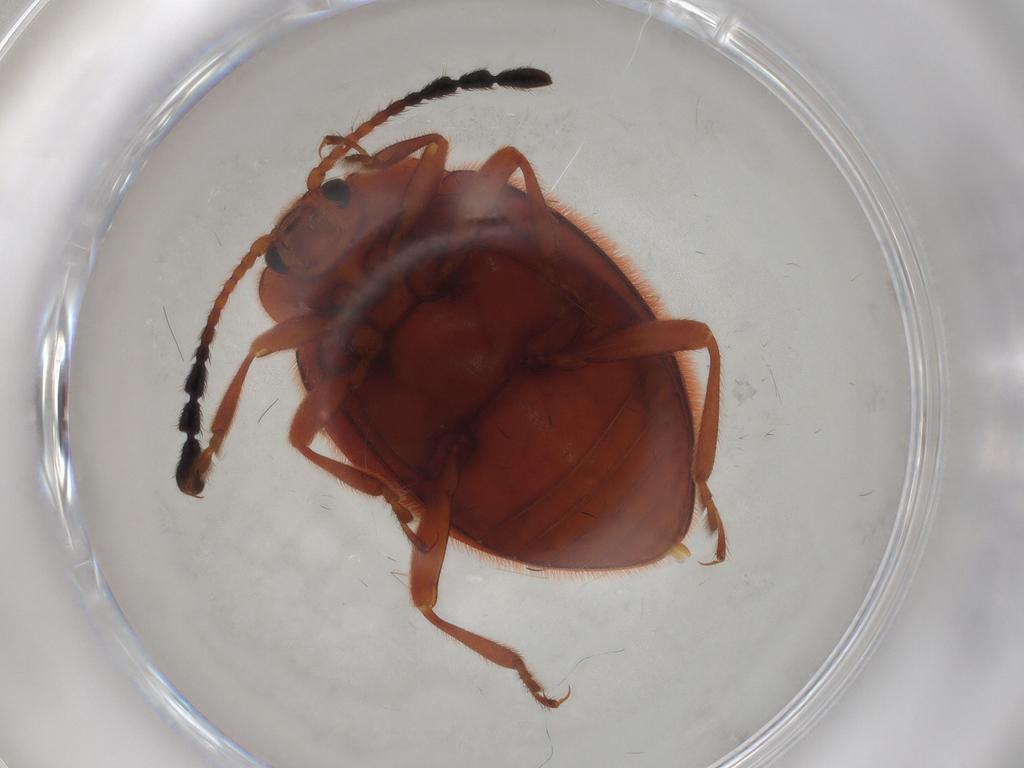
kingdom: Animalia
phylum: Arthropoda
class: Insecta
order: Coleoptera
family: Endomychidae
